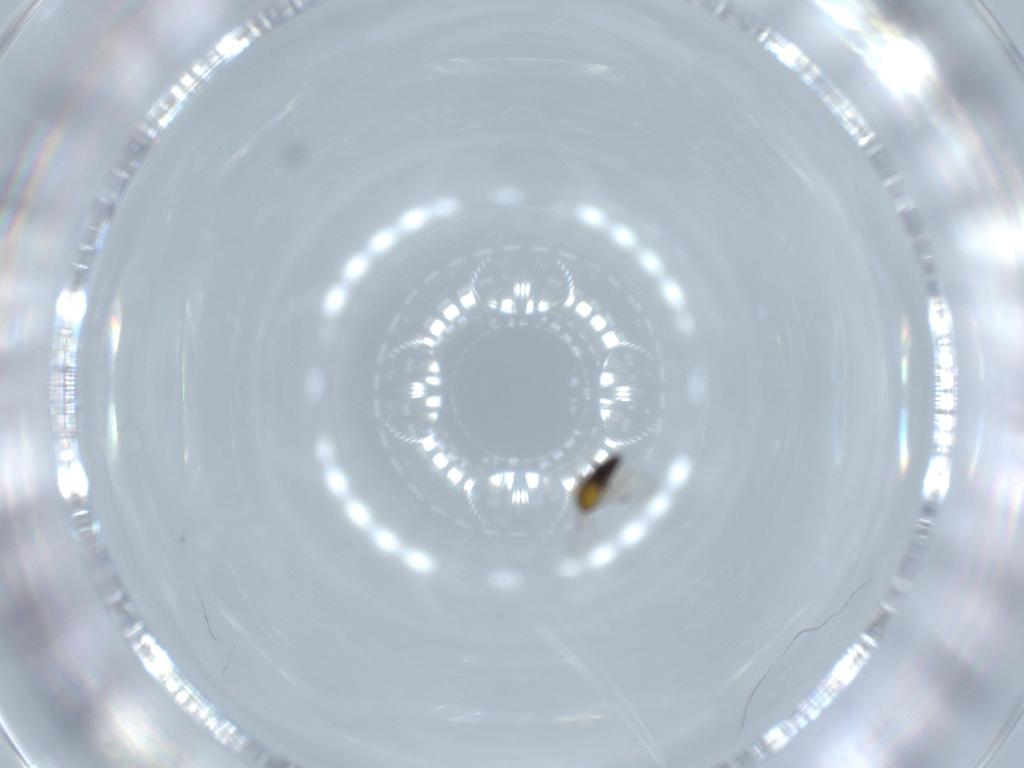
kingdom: Animalia
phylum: Arthropoda
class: Insecta
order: Hymenoptera
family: Trichogrammatidae
